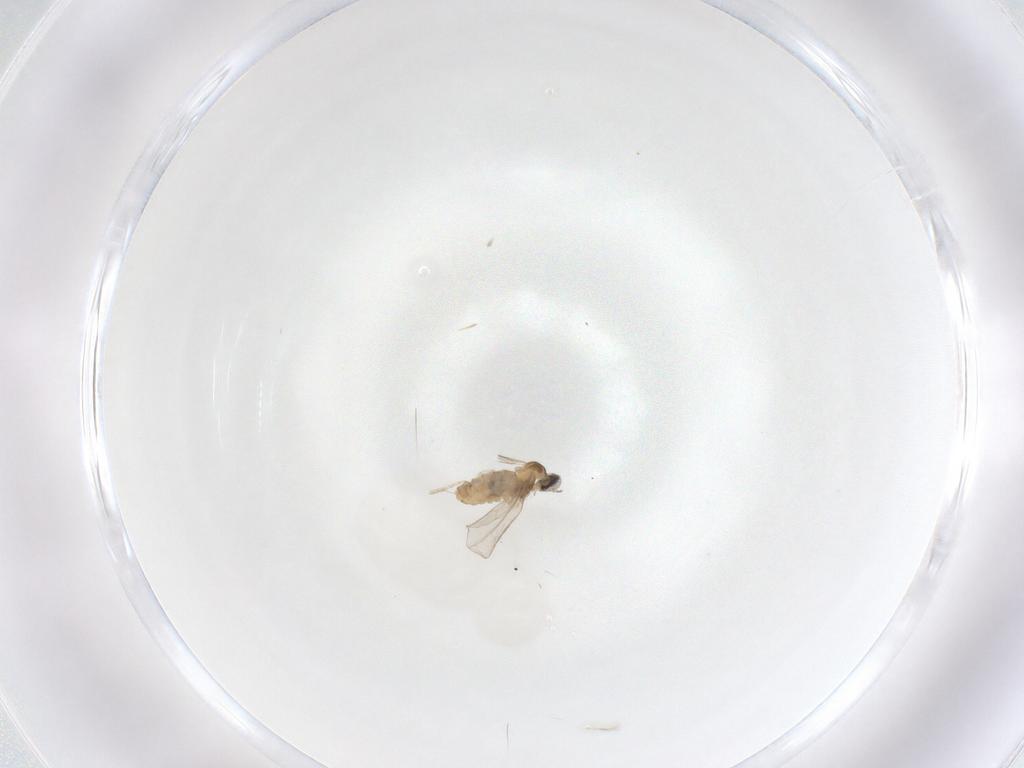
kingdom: Animalia
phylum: Arthropoda
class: Insecta
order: Diptera
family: Cecidomyiidae
